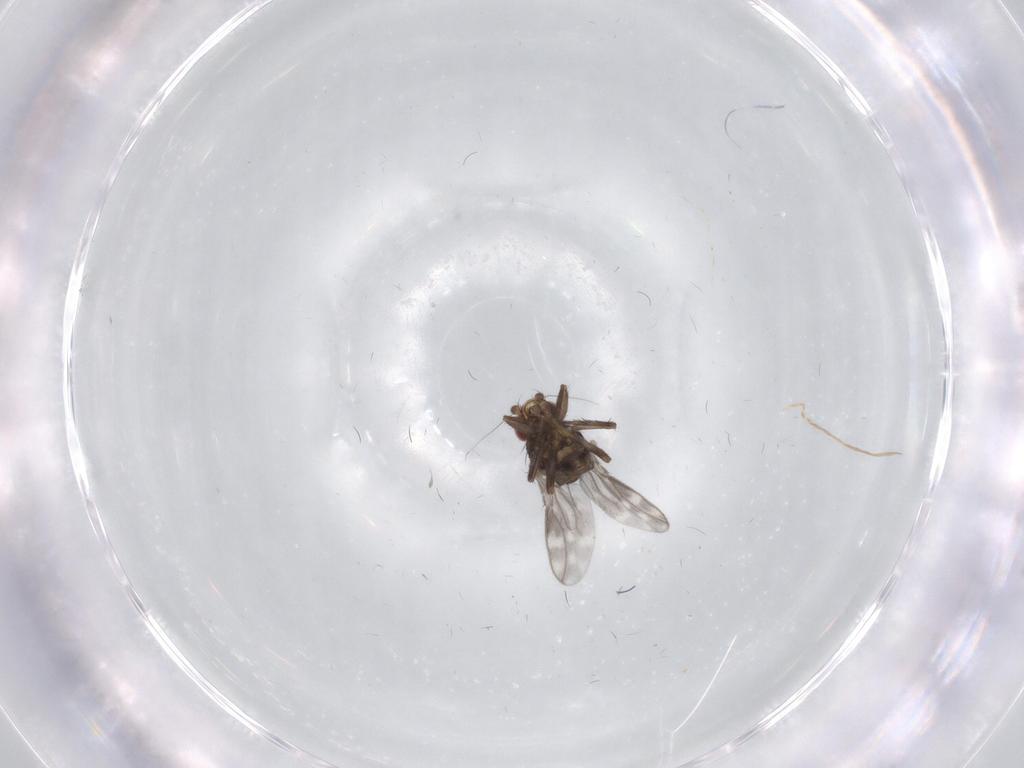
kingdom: Animalia
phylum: Arthropoda
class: Insecta
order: Diptera
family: Sphaeroceridae
